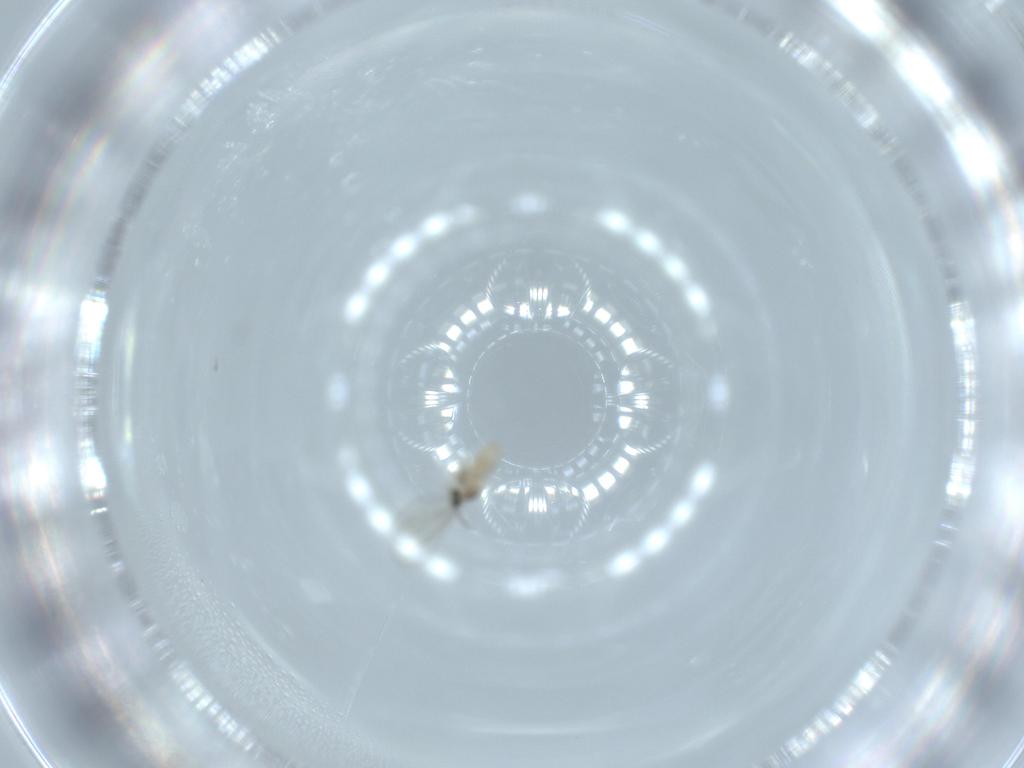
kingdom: Animalia
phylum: Arthropoda
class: Insecta
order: Diptera
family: Cecidomyiidae
